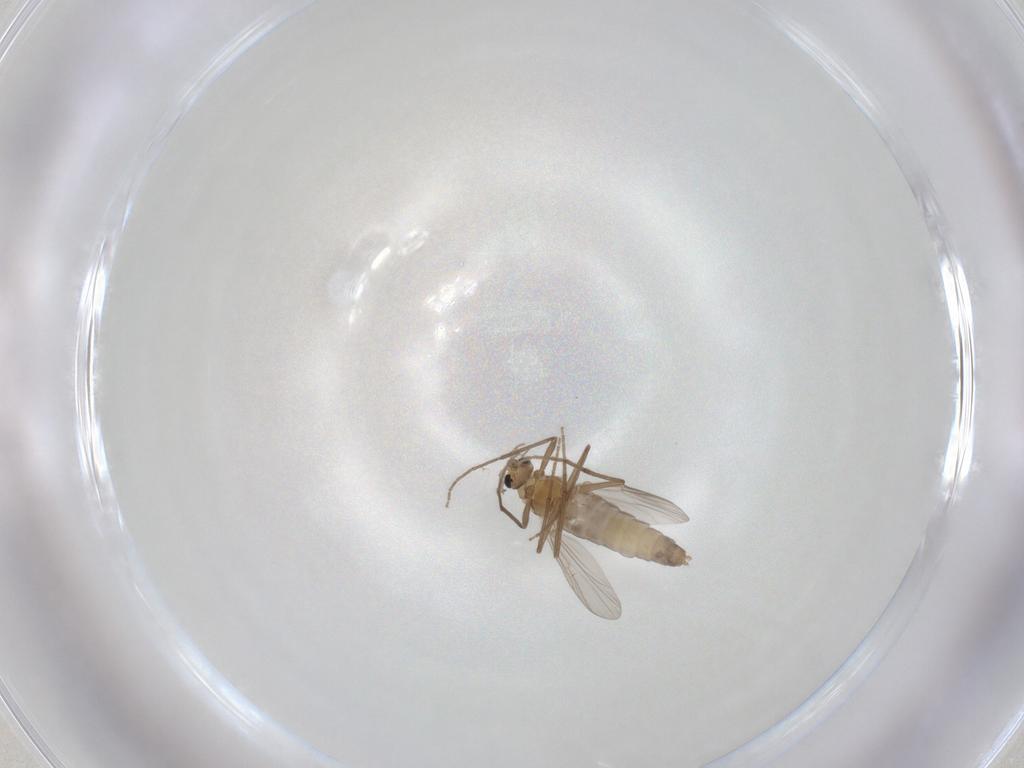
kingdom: Animalia
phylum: Arthropoda
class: Insecta
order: Diptera
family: Chironomidae
